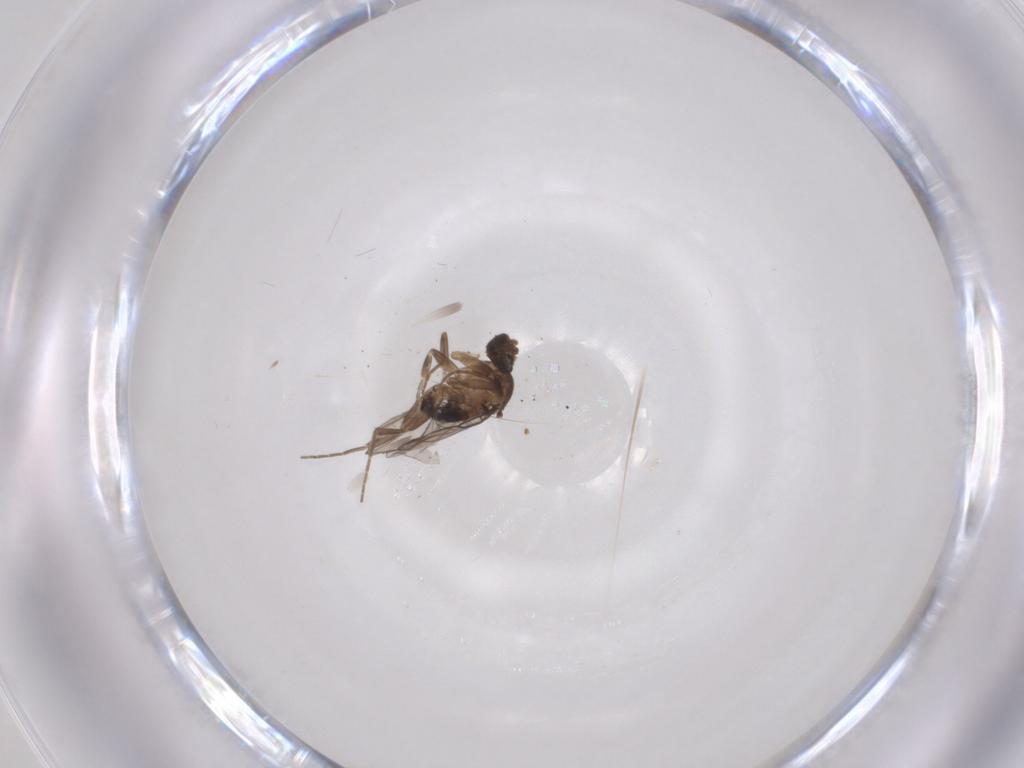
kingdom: Animalia
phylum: Arthropoda
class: Insecta
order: Diptera
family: Phoridae
